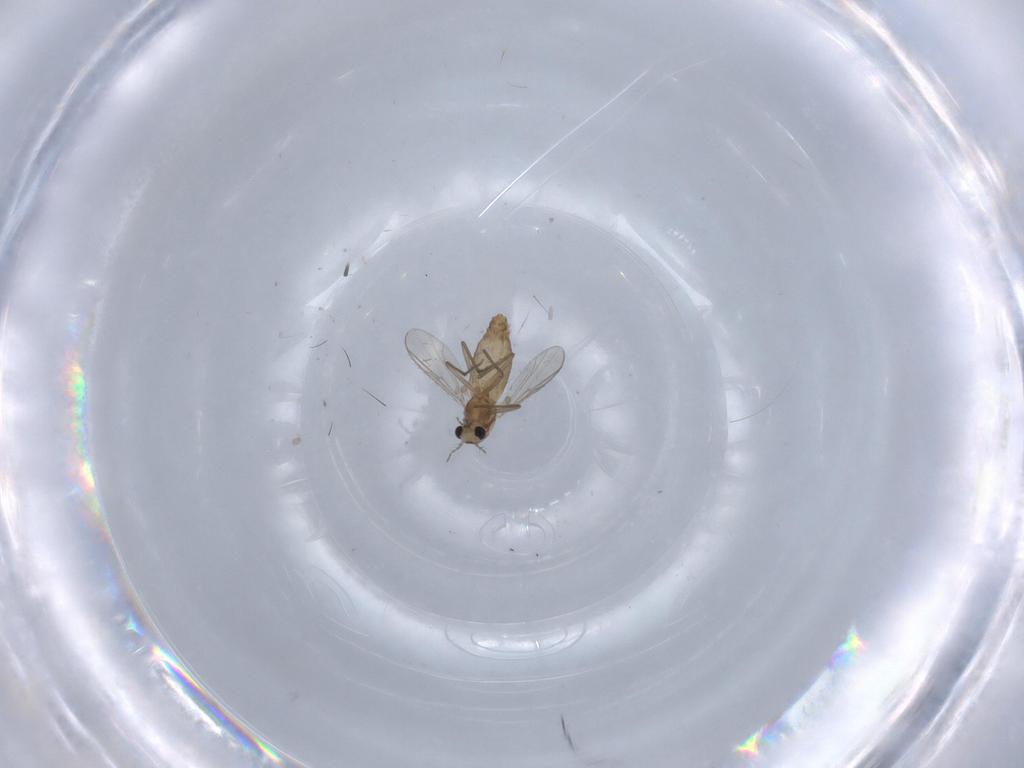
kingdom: Animalia
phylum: Arthropoda
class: Insecta
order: Diptera
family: Chironomidae
